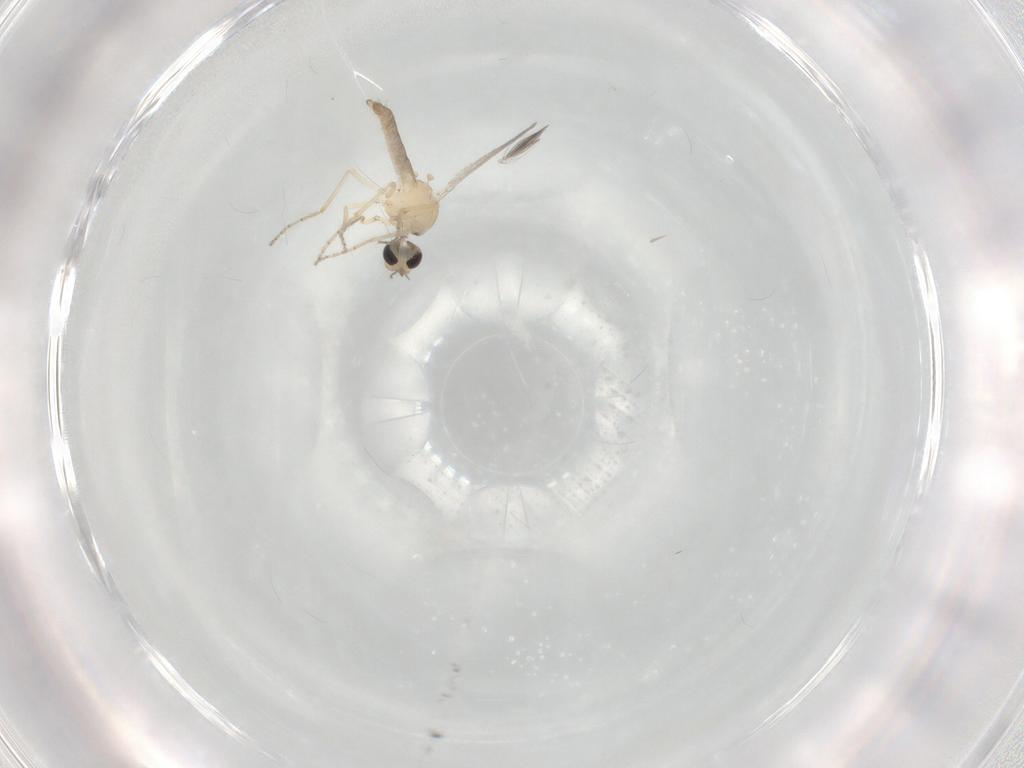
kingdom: Animalia
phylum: Arthropoda
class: Insecta
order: Diptera
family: Ceratopogonidae
